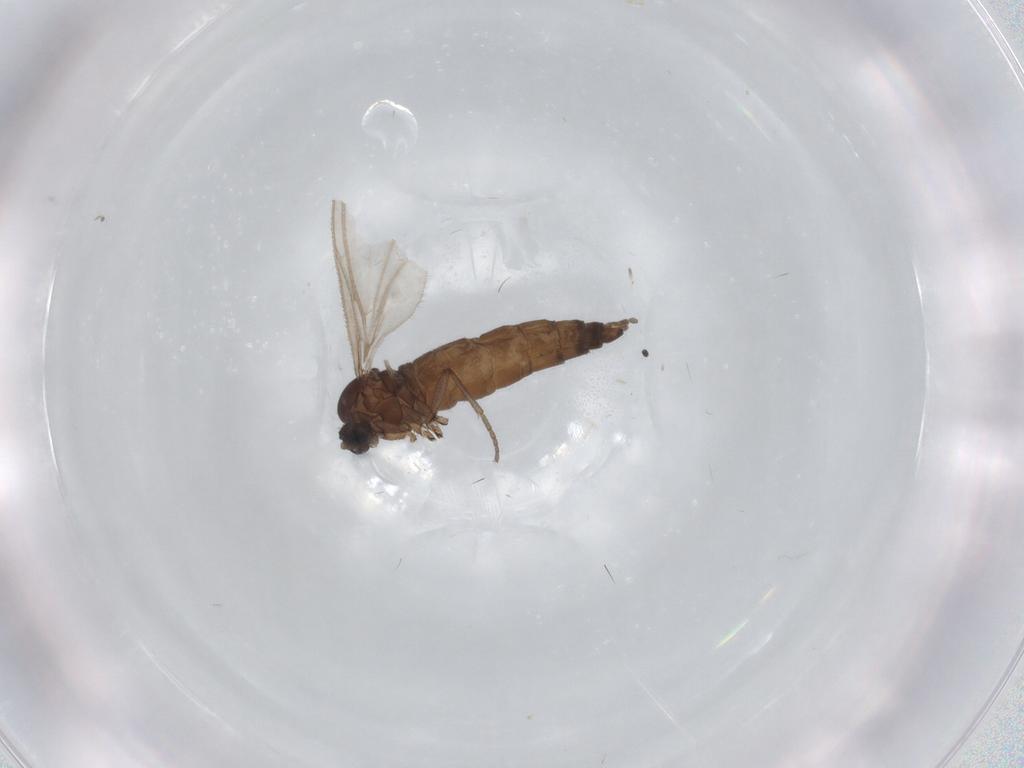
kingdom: Animalia
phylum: Arthropoda
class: Insecta
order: Diptera
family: Sciaridae
